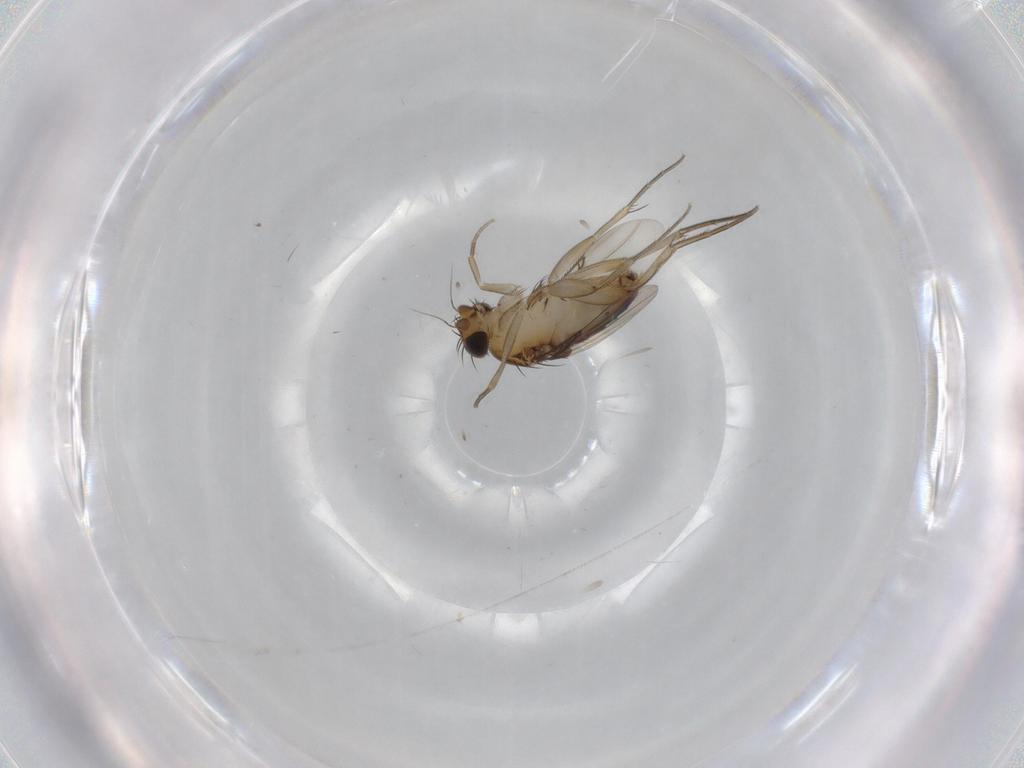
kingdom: Animalia
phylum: Arthropoda
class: Insecta
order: Diptera
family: Phoridae
